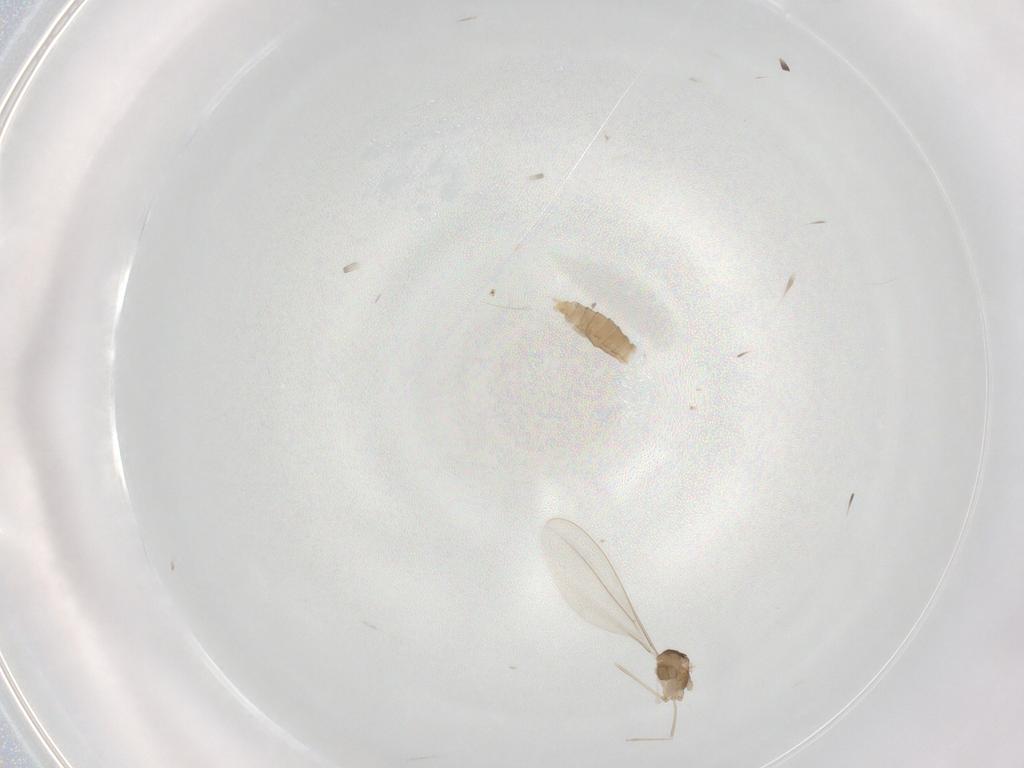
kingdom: Animalia
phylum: Arthropoda
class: Insecta
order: Diptera
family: Cecidomyiidae
